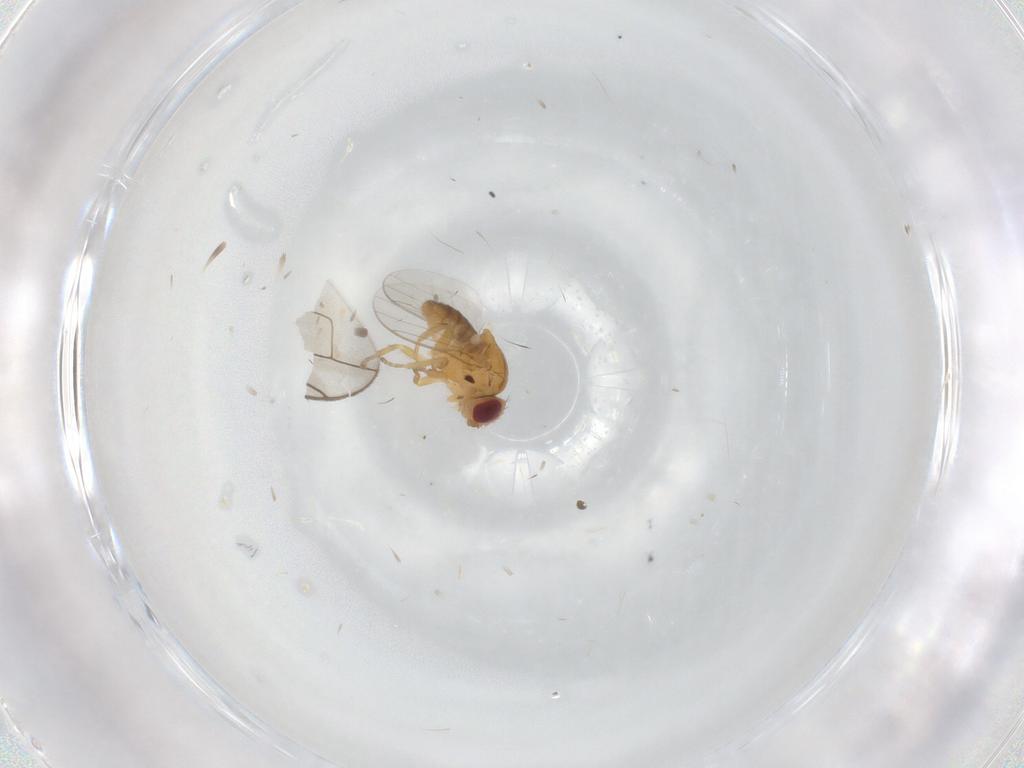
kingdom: Animalia
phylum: Arthropoda
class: Insecta
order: Diptera
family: Chloropidae
